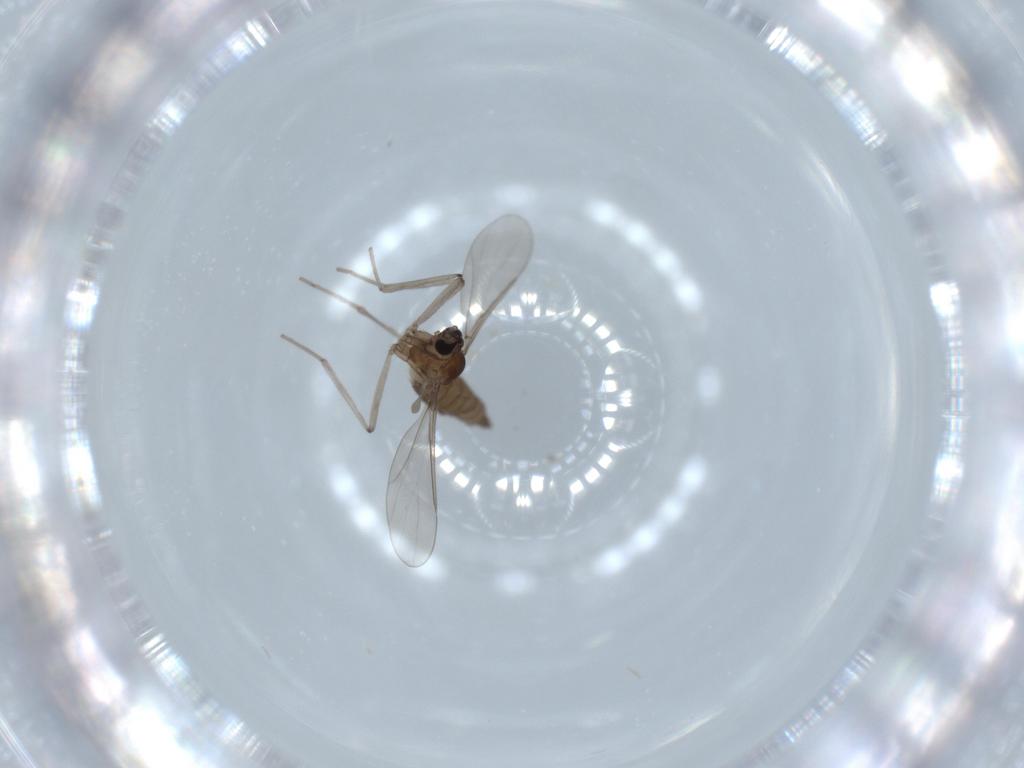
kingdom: Animalia
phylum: Arthropoda
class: Insecta
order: Diptera
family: Cecidomyiidae
